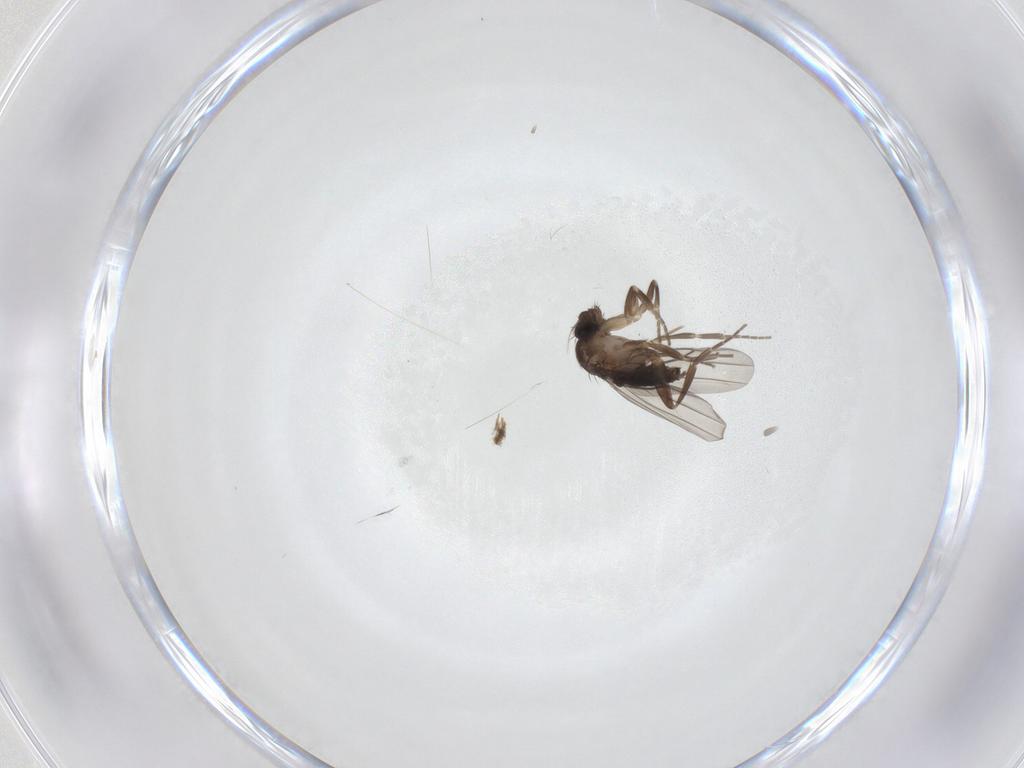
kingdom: Animalia
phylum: Arthropoda
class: Insecta
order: Diptera
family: Phoridae
